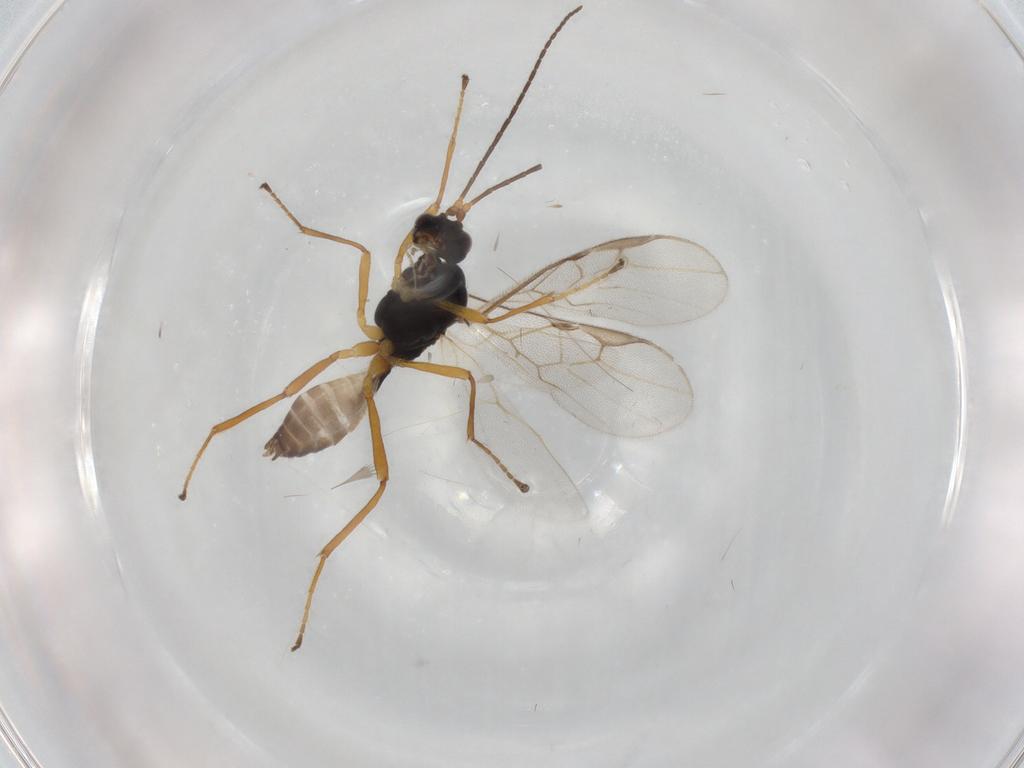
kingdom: Animalia
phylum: Arthropoda
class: Insecta
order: Hymenoptera
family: Braconidae
